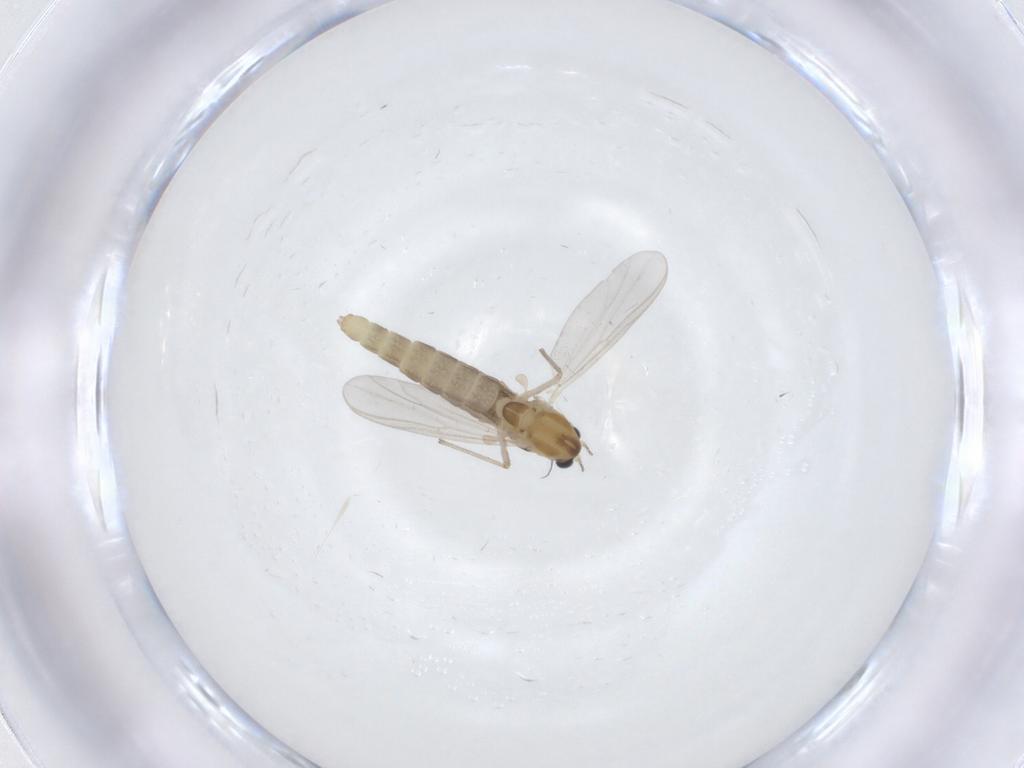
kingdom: Animalia
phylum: Arthropoda
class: Insecta
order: Diptera
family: Chironomidae
